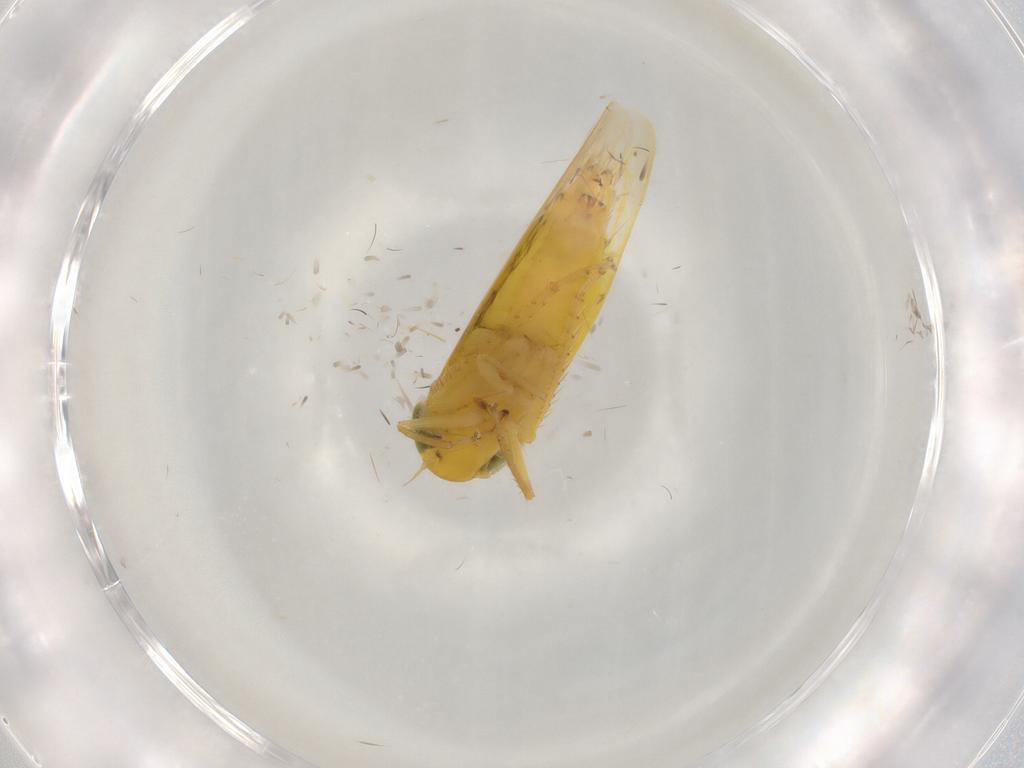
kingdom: Animalia
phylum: Arthropoda
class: Insecta
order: Hemiptera
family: Cicadellidae
